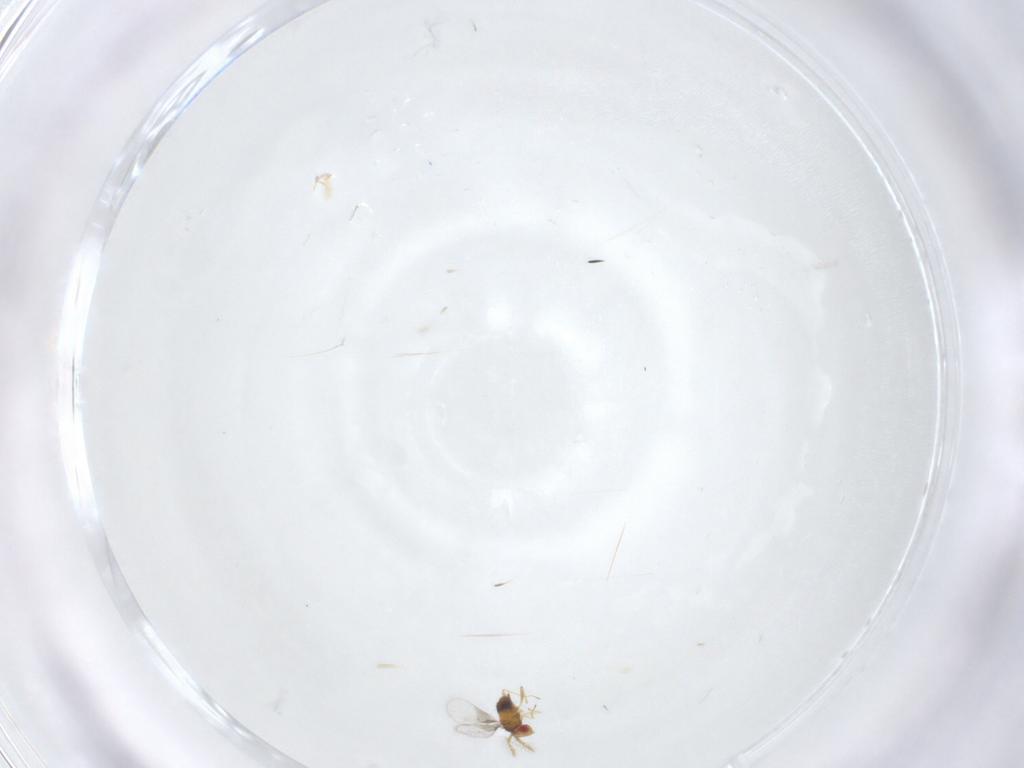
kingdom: Animalia
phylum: Arthropoda
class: Insecta
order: Hymenoptera
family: Trichogrammatidae
